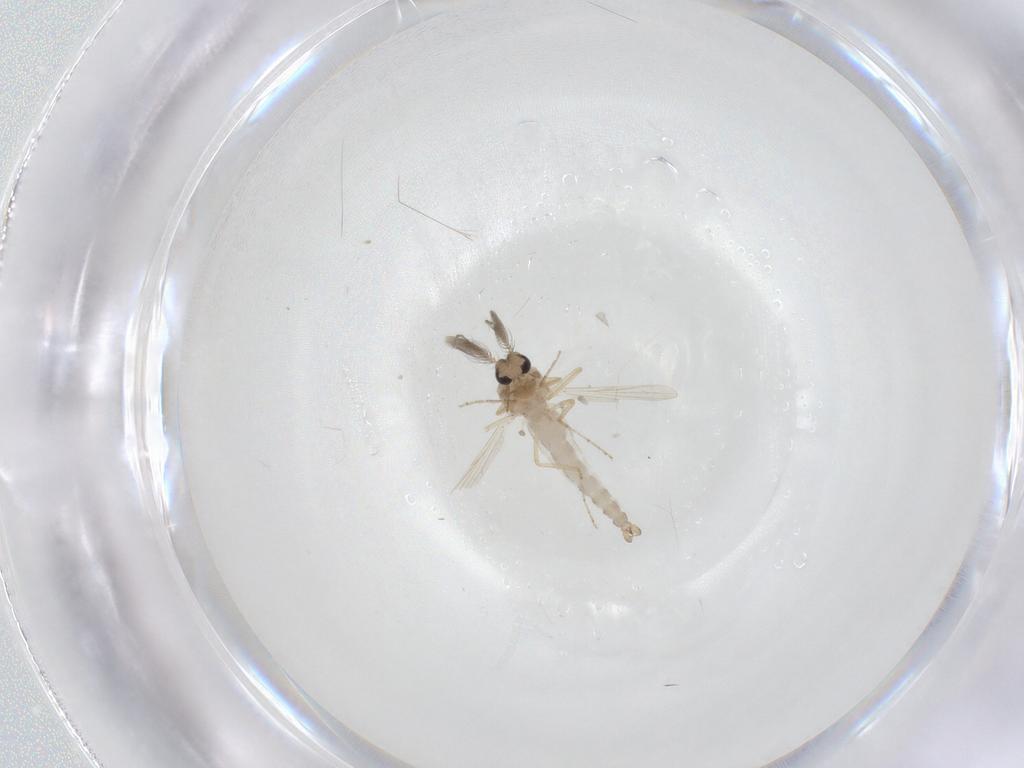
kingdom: Animalia
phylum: Arthropoda
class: Insecta
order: Diptera
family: Ceratopogonidae
